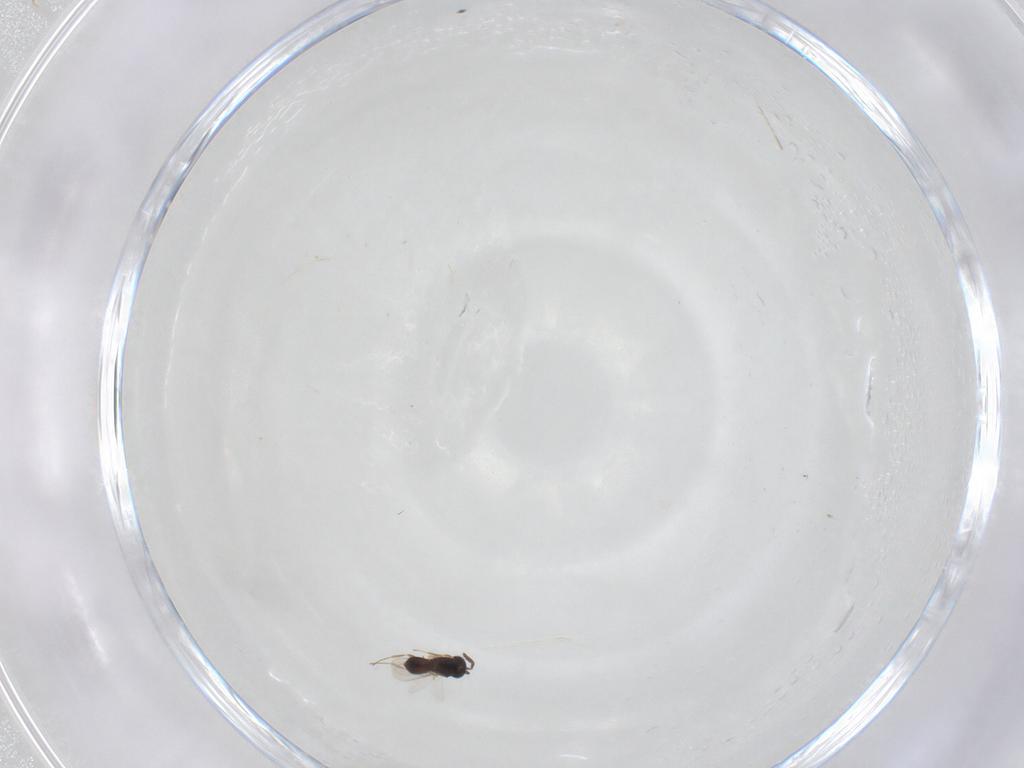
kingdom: Animalia
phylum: Arthropoda
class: Insecta
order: Hymenoptera
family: Scelionidae
